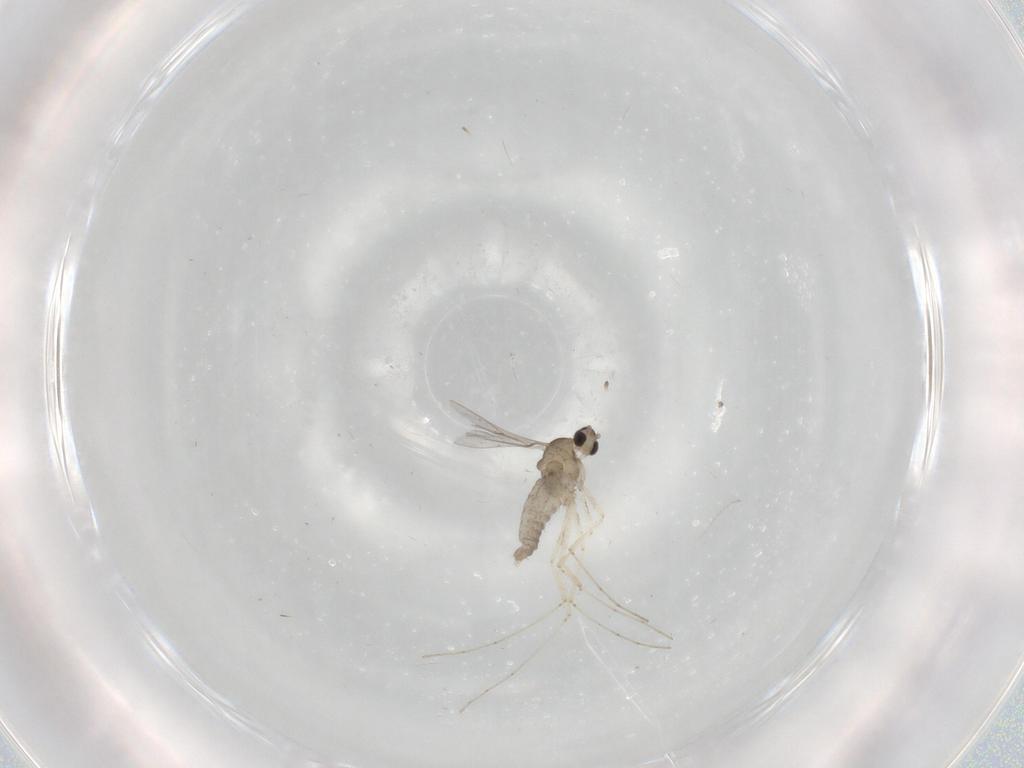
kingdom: Animalia
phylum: Arthropoda
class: Insecta
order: Diptera
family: Cecidomyiidae
